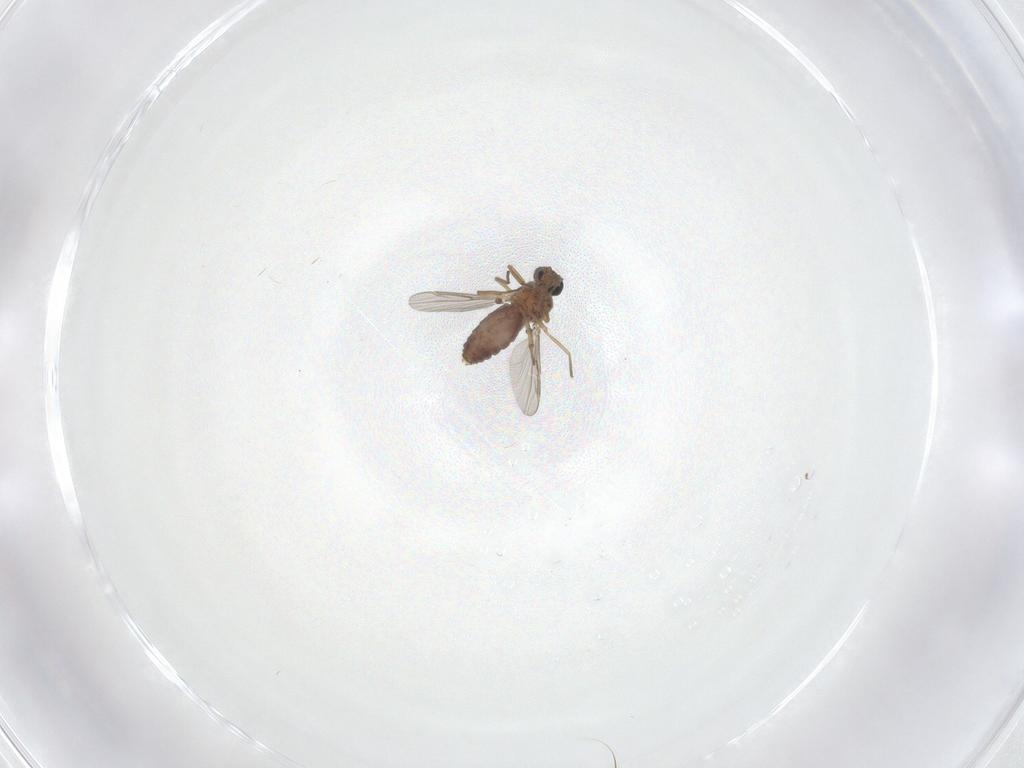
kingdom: Animalia
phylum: Arthropoda
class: Insecta
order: Diptera
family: Ceratopogonidae
